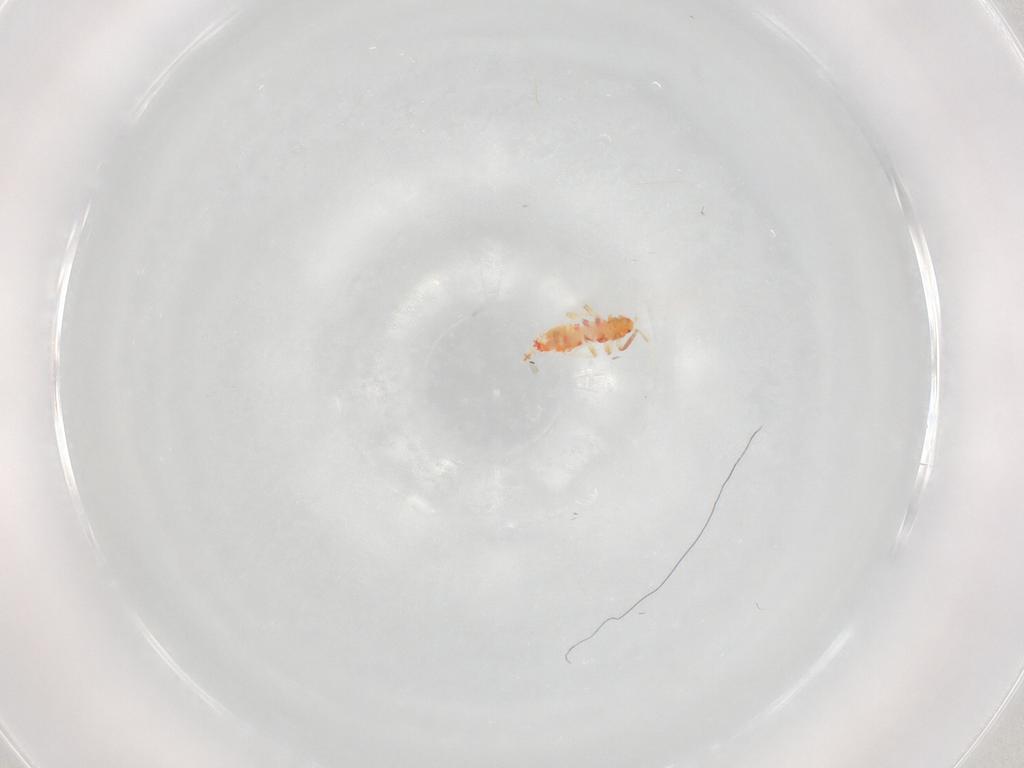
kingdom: Animalia
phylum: Arthropoda
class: Insecta
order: Thysanoptera
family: Aeolothripidae
